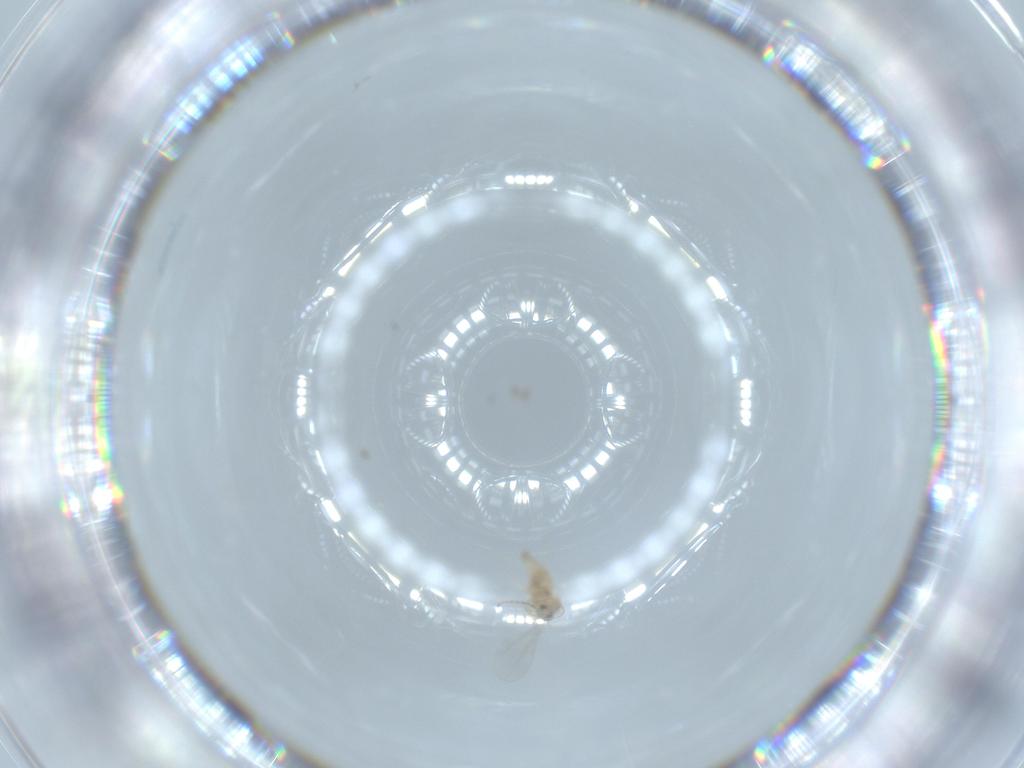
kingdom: Animalia
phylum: Arthropoda
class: Insecta
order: Diptera
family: Cecidomyiidae
